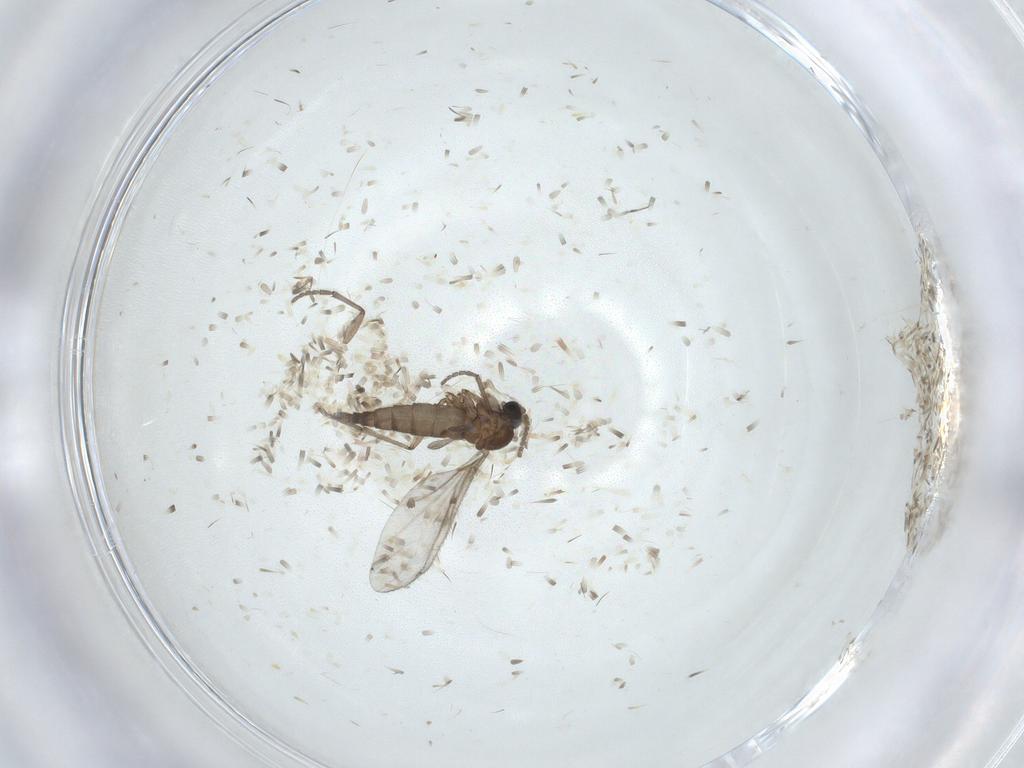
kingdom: Animalia
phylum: Arthropoda
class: Insecta
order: Diptera
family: Sciaridae
